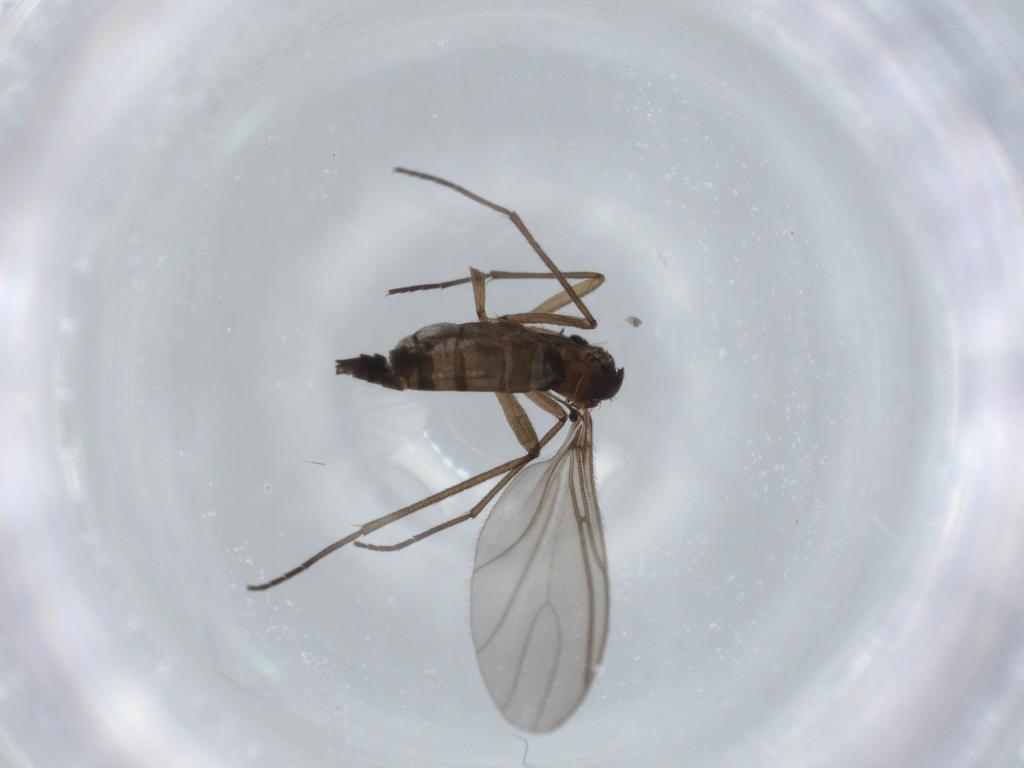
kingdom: Animalia
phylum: Arthropoda
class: Insecta
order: Diptera
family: Sciaridae
